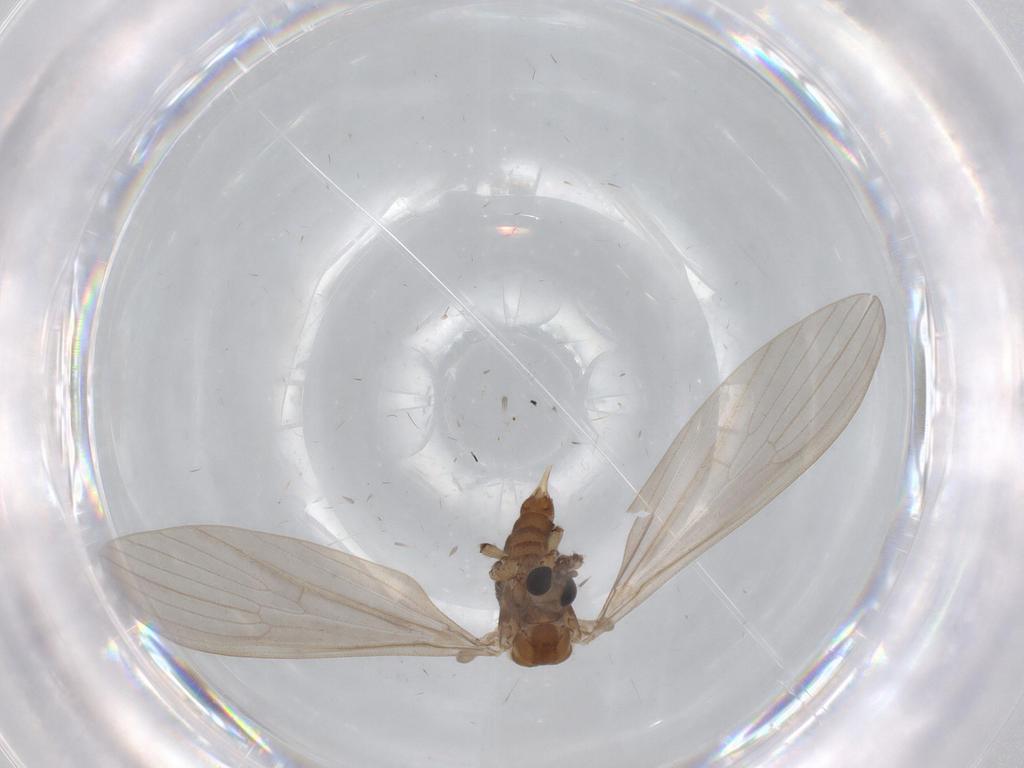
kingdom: Animalia
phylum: Arthropoda
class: Insecta
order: Diptera
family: Limoniidae
